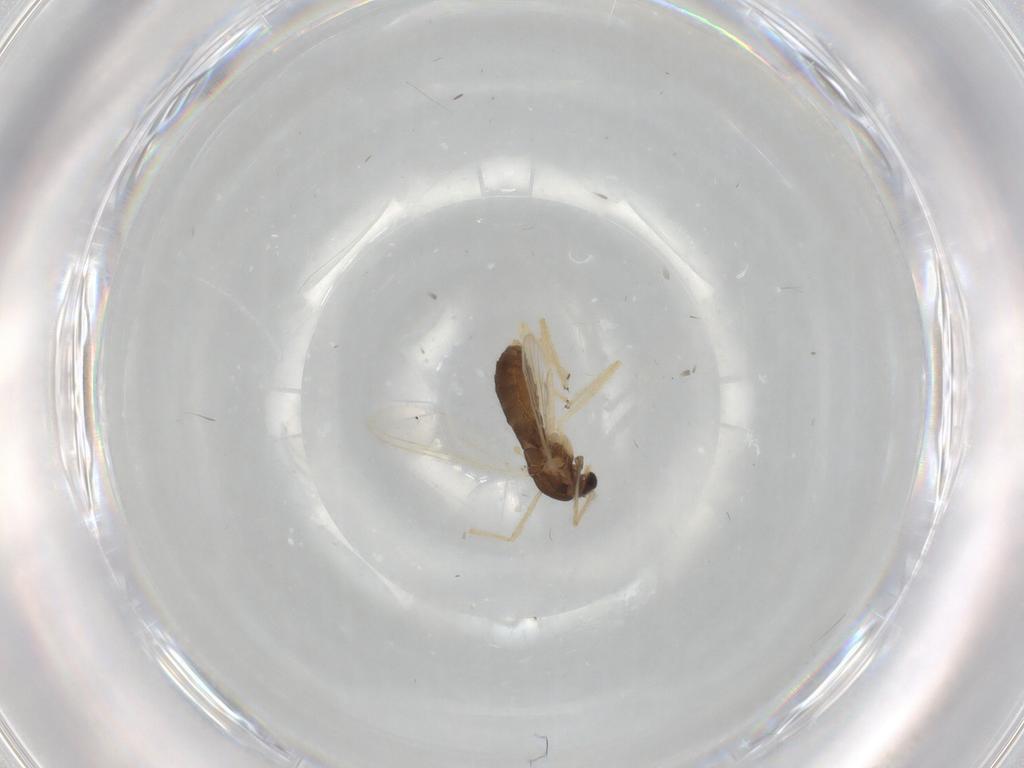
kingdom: Animalia
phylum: Arthropoda
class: Insecta
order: Diptera
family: Chironomidae
